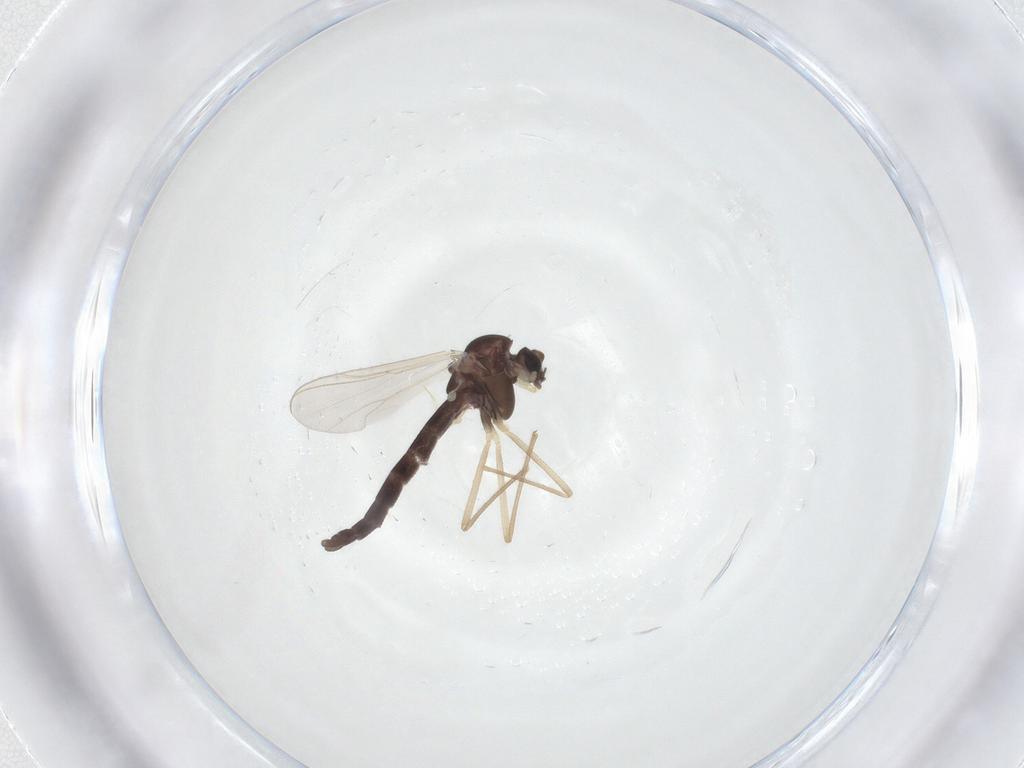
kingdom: Animalia
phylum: Arthropoda
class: Insecta
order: Diptera
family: Chironomidae
